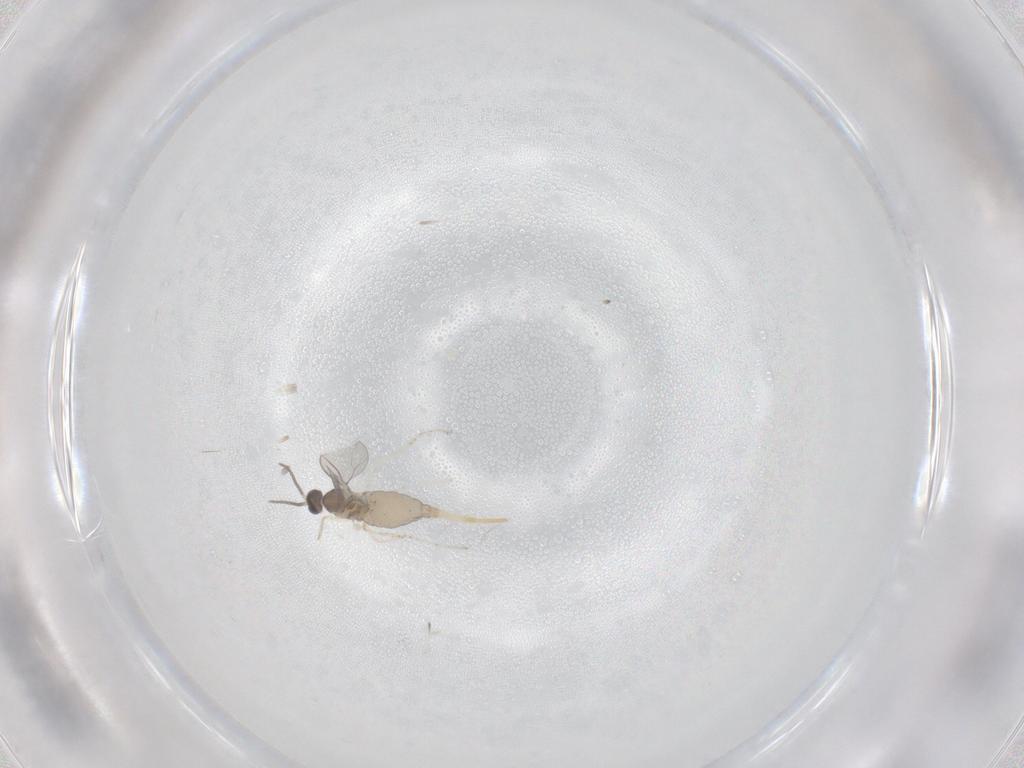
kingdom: Animalia
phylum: Arthropoda
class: Insecta
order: Diptera
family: Cecidomyiidae
